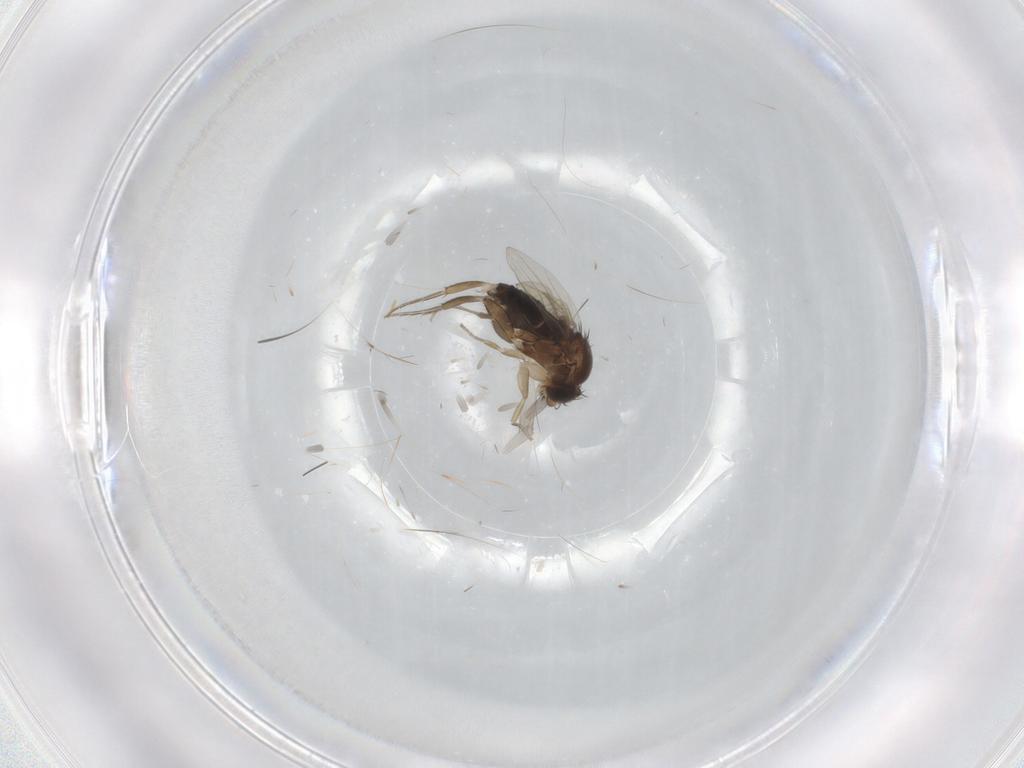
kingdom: Animalia
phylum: Arthropoda
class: Insecta
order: Diptera
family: Phoridae
